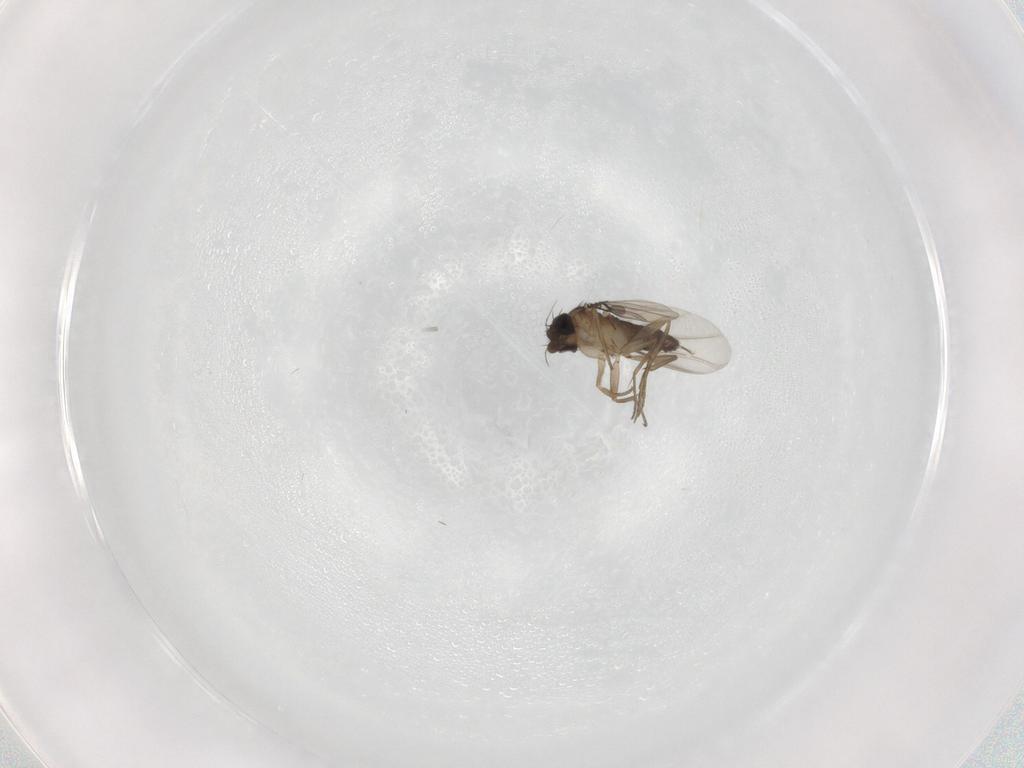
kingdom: Animalia
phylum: Arthropoda
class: Insecta
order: Diptera
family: Phoridae
